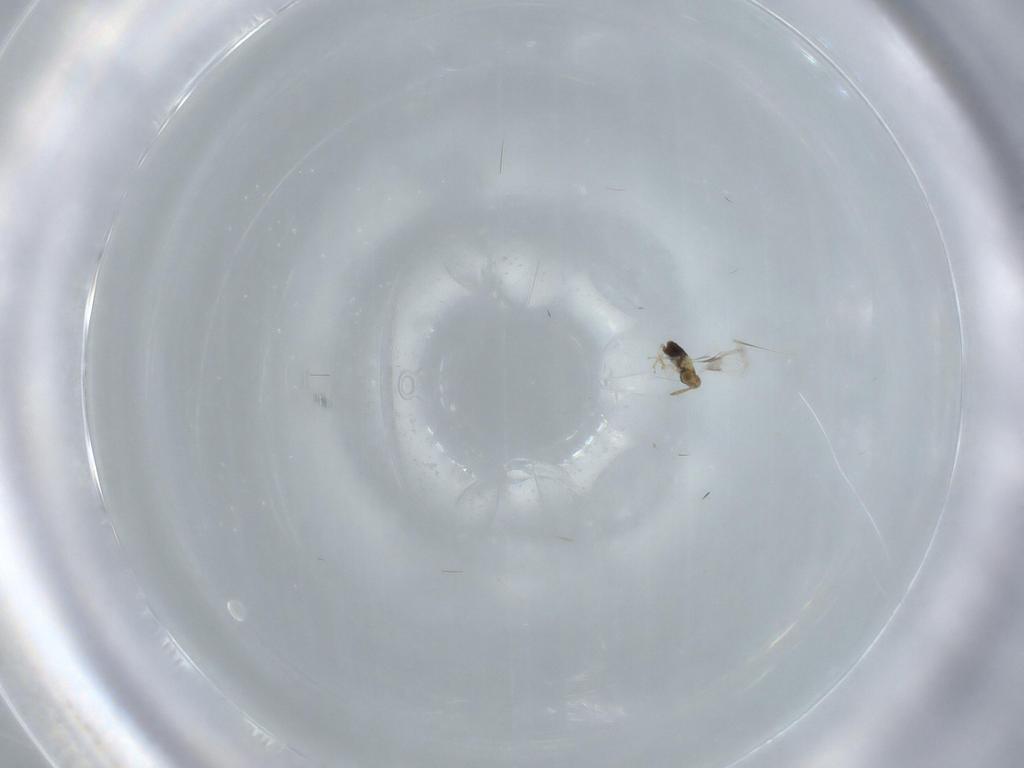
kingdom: Animalia
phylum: Arthropoda
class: Insecta
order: Hymenoptera
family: Aphelinidae
